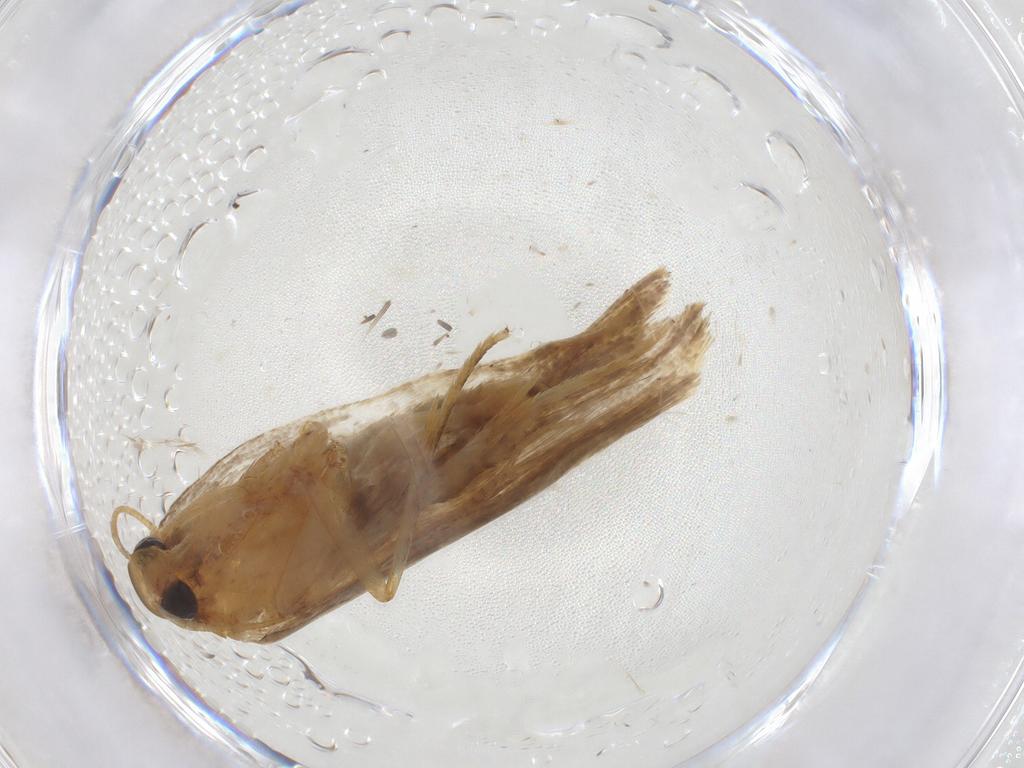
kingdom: Animalia
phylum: Arthropoda
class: Insecta
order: Lepidoptera
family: Oecophoridae
